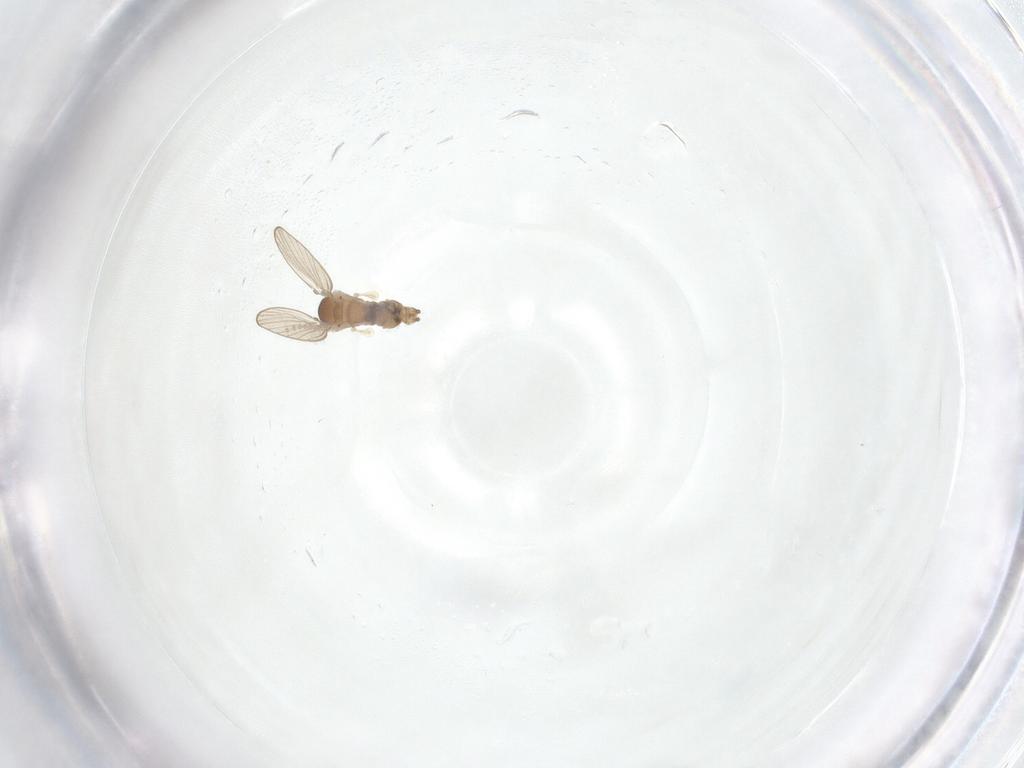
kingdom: Animalia
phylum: Arthropoda
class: Insecta
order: Diptera
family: Psychodidae
